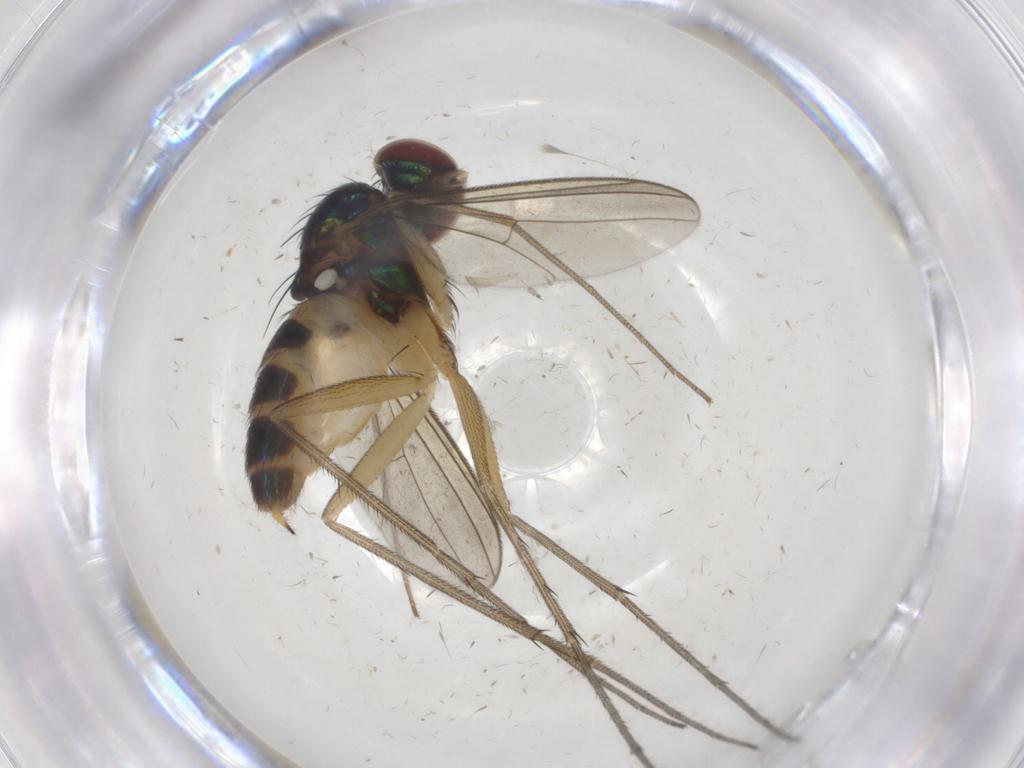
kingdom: Animalia
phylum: Arthropoda
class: Insecta
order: Diptera
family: Dolichopodidae
